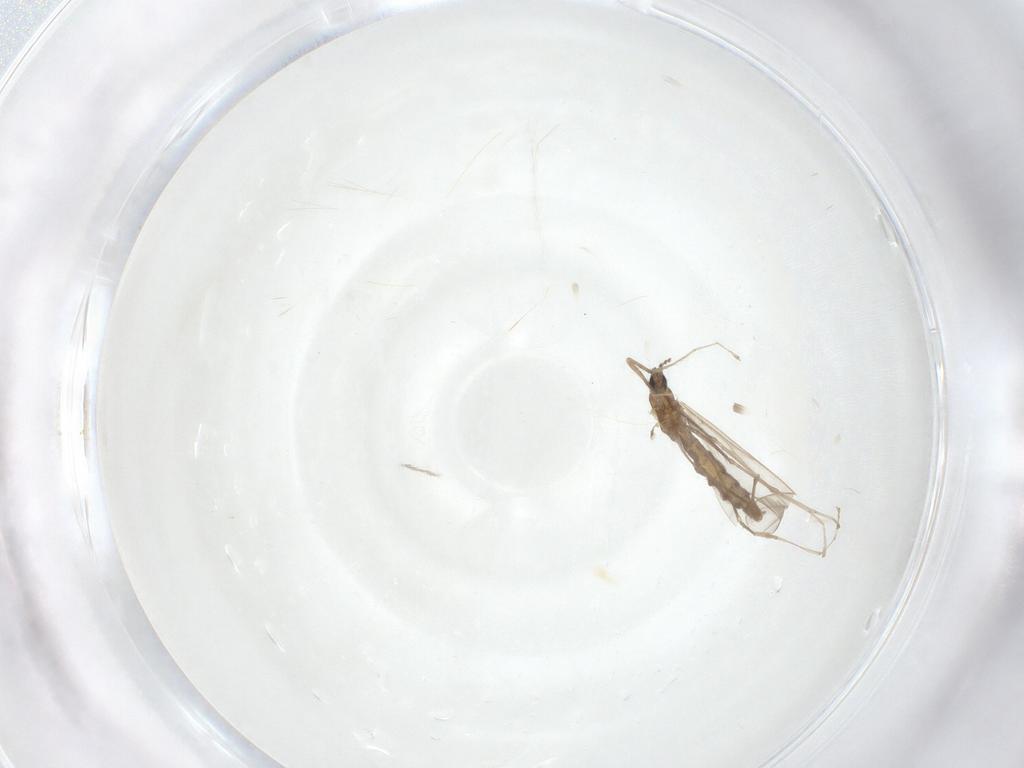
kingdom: Animalia
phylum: Arthropoda
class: Insecta
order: Diptera
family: Cecidomyiidae
